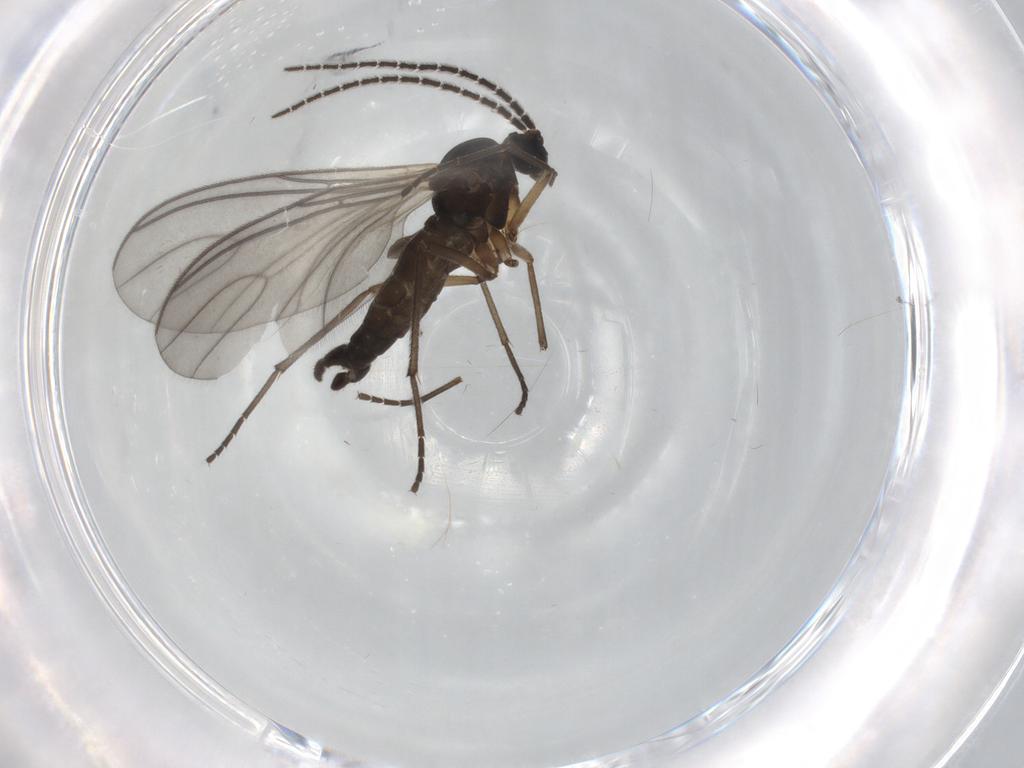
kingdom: Animalia
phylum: Arthropoda
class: Insecta
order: Diptera
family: Sciaridae
